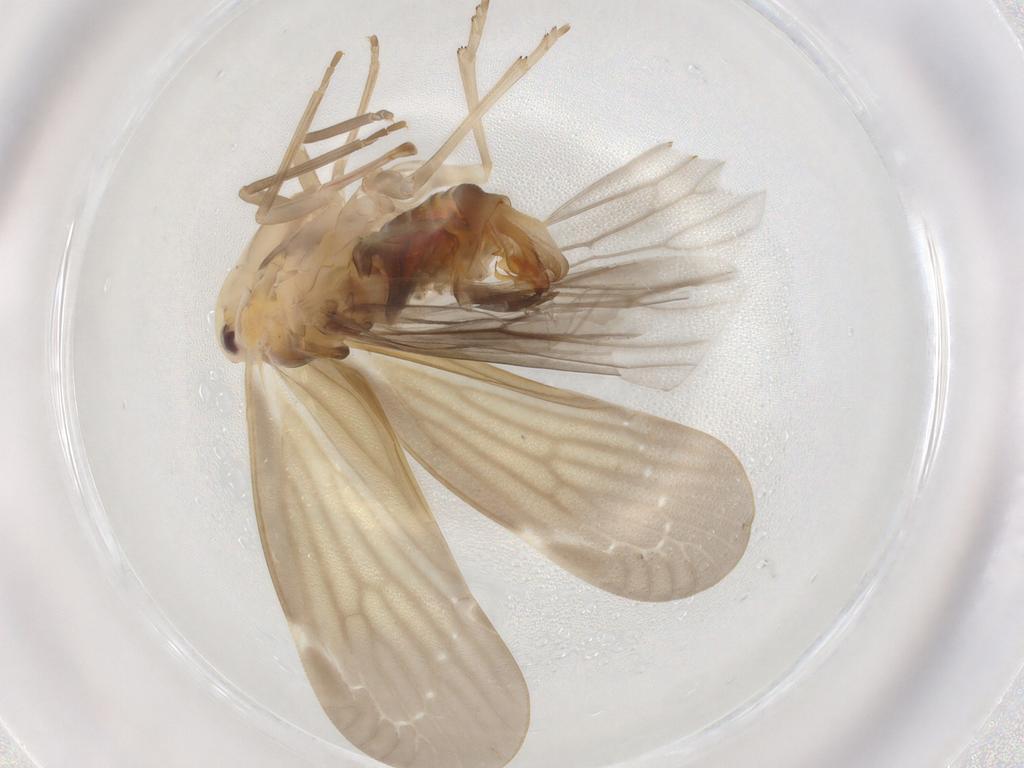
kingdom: Animalia
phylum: Arthropoda
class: Insecta
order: Hemiptera
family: Derbidae
